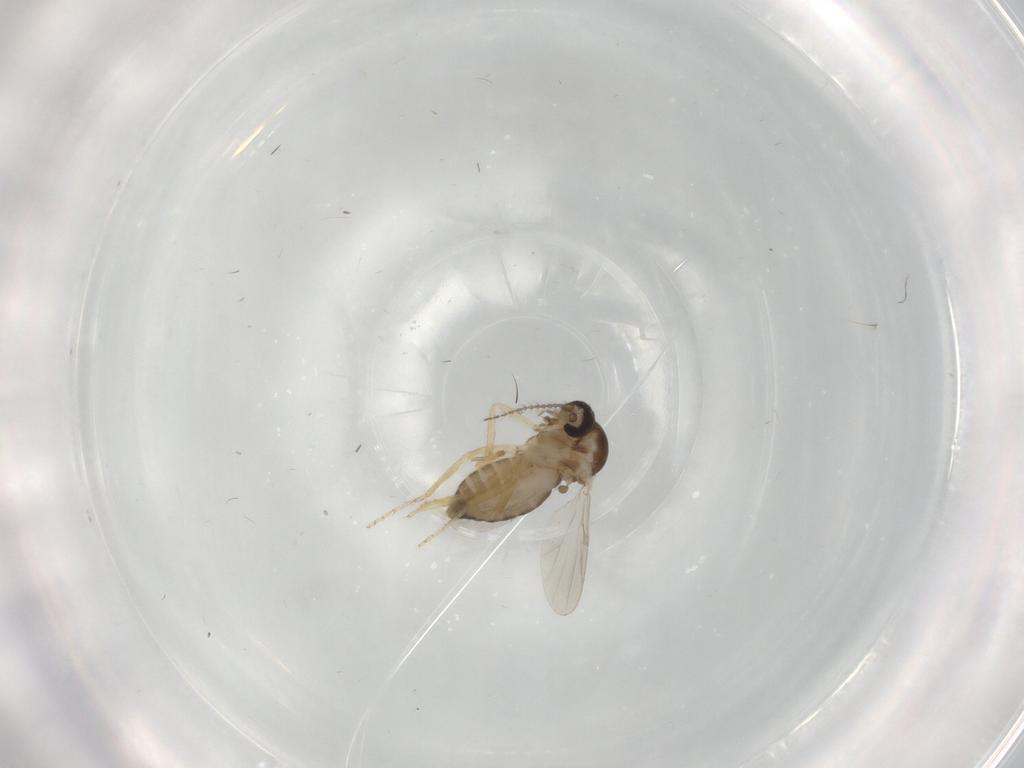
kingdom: Animalia
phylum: Arthropoda
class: Insecta
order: Diptera
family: Ceratopogonidae
